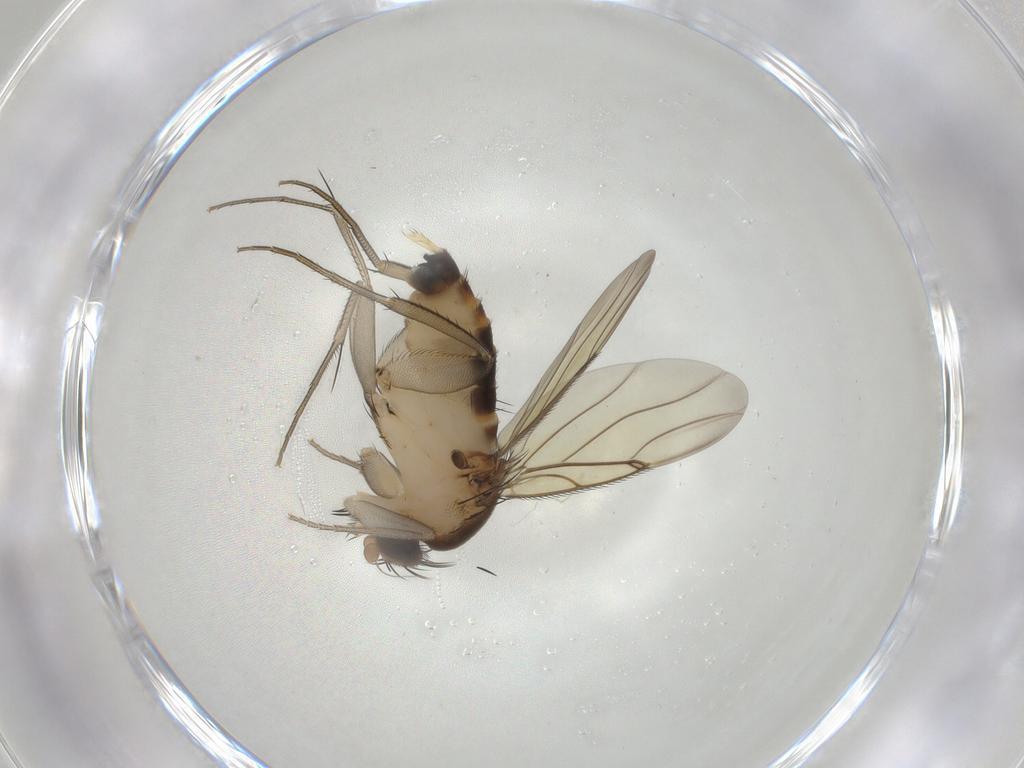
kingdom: Animalia
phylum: Arthropoda
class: Insecta
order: Diptera
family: Phoridae
